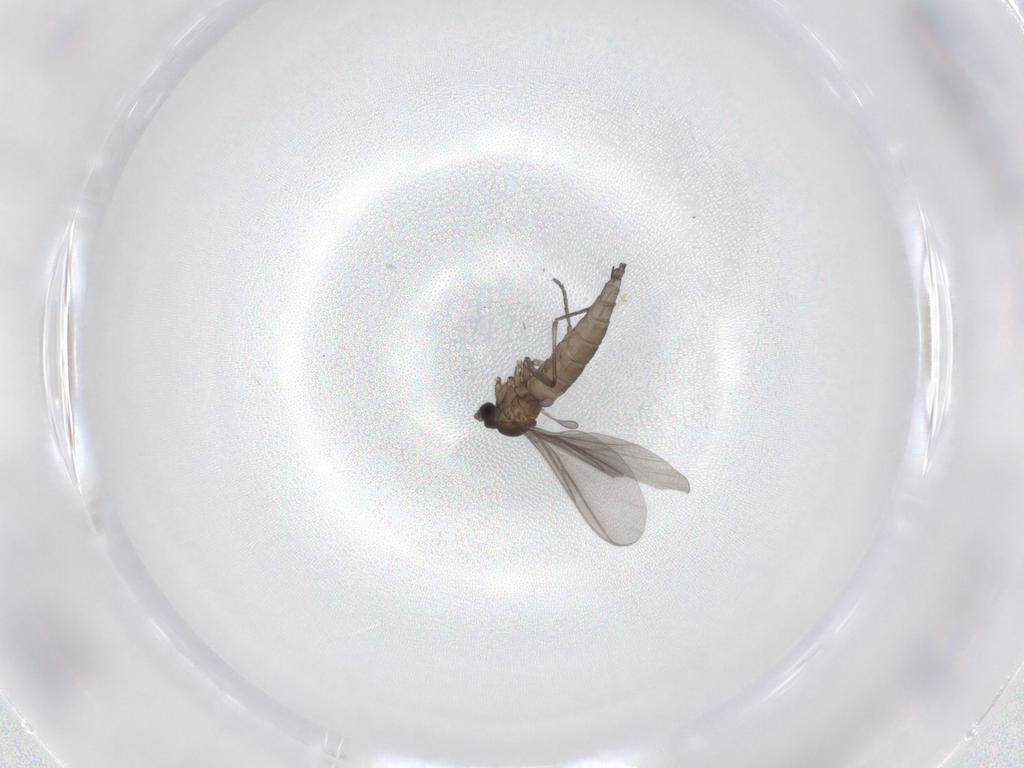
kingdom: Animalia
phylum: Arthropoda
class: Insecta
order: Diptera
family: Sciaridae
